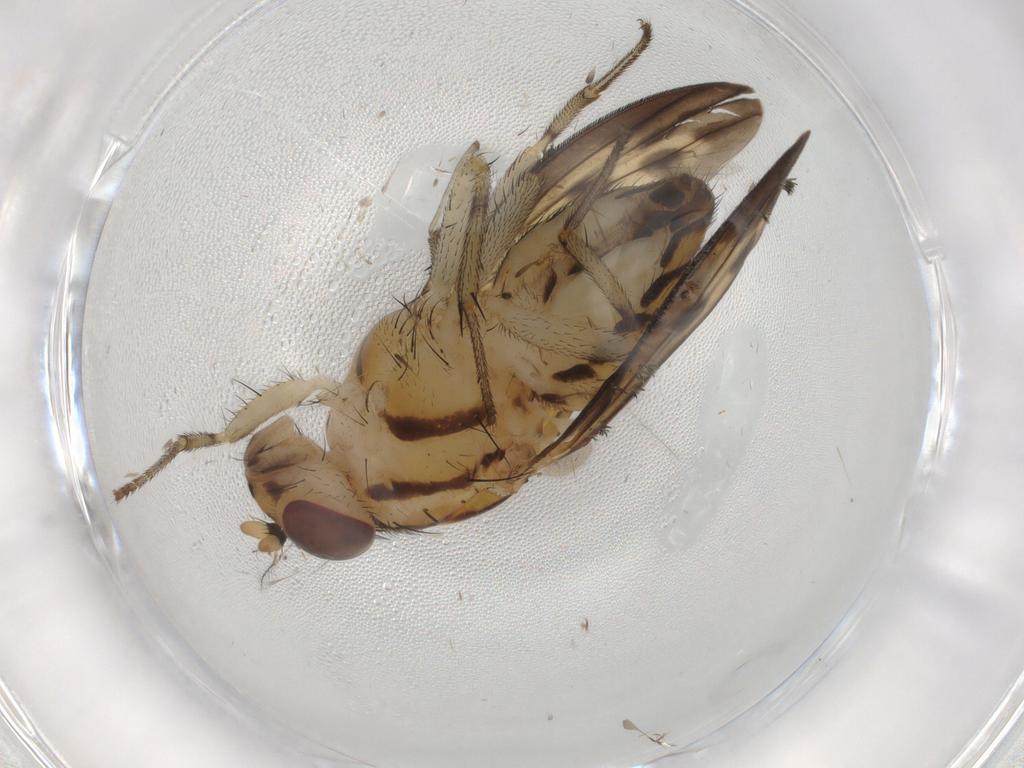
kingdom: Animalia
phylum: Arthropoda
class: Insecta
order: Diptera
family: Psychodidae
